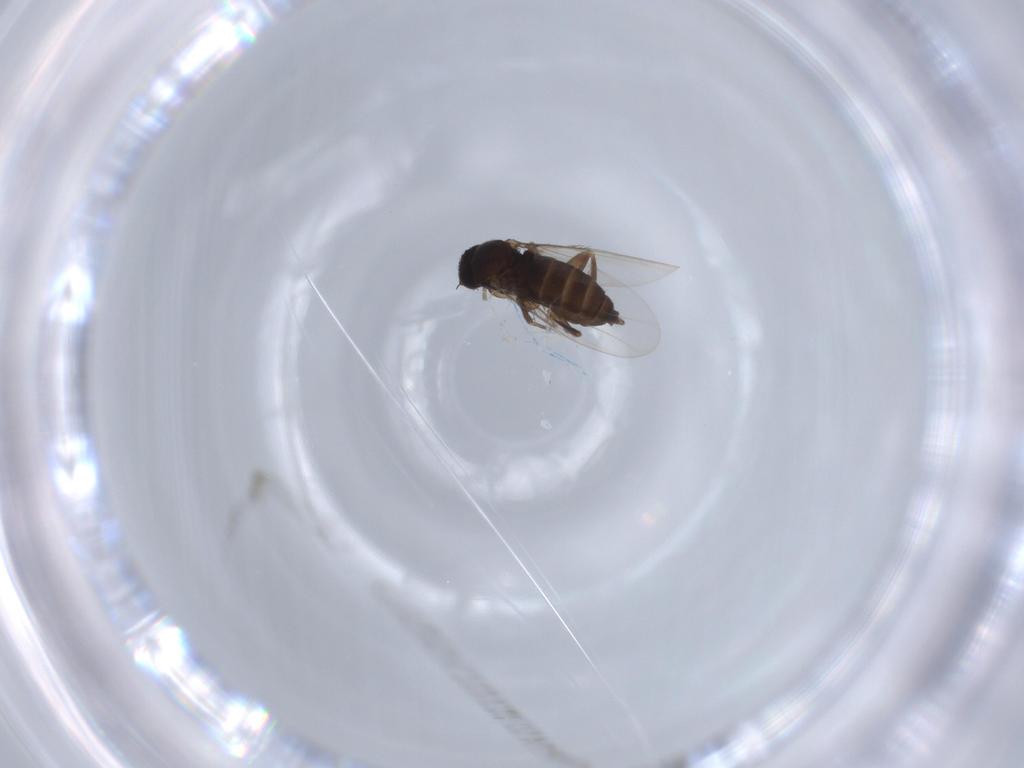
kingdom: Animalia
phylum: Arthropoda
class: Insecta
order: Diptera
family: Phoridae
